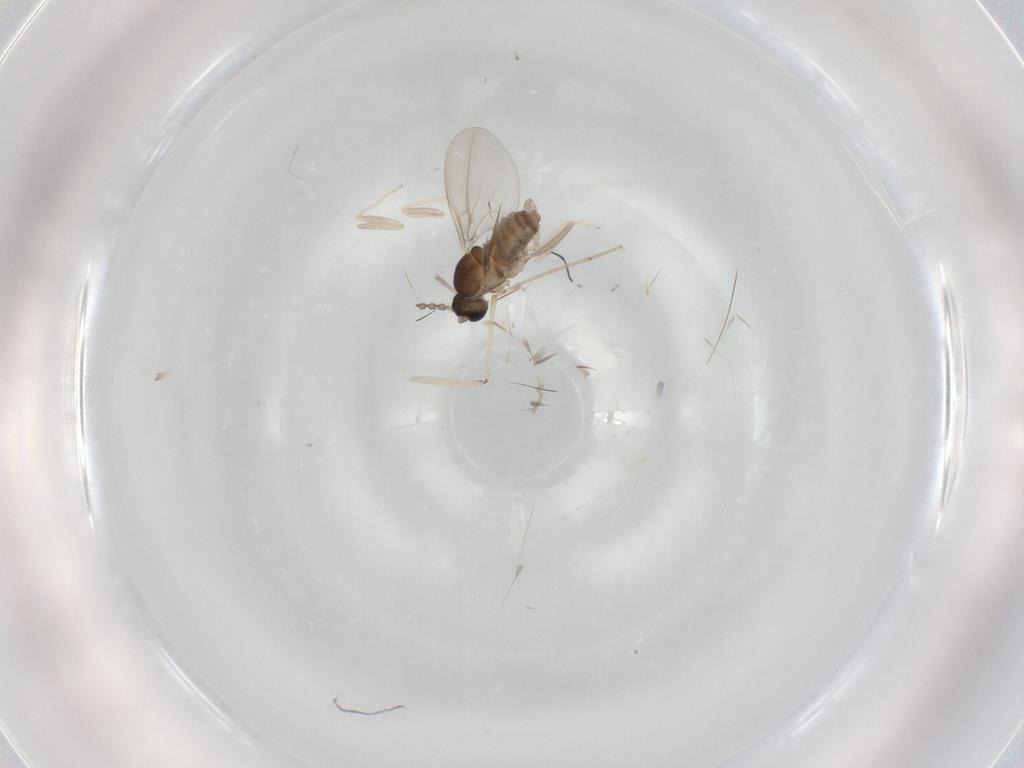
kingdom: Animalia
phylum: Arthropoda
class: Insecta
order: Diptera
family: Cecidomyiidae
